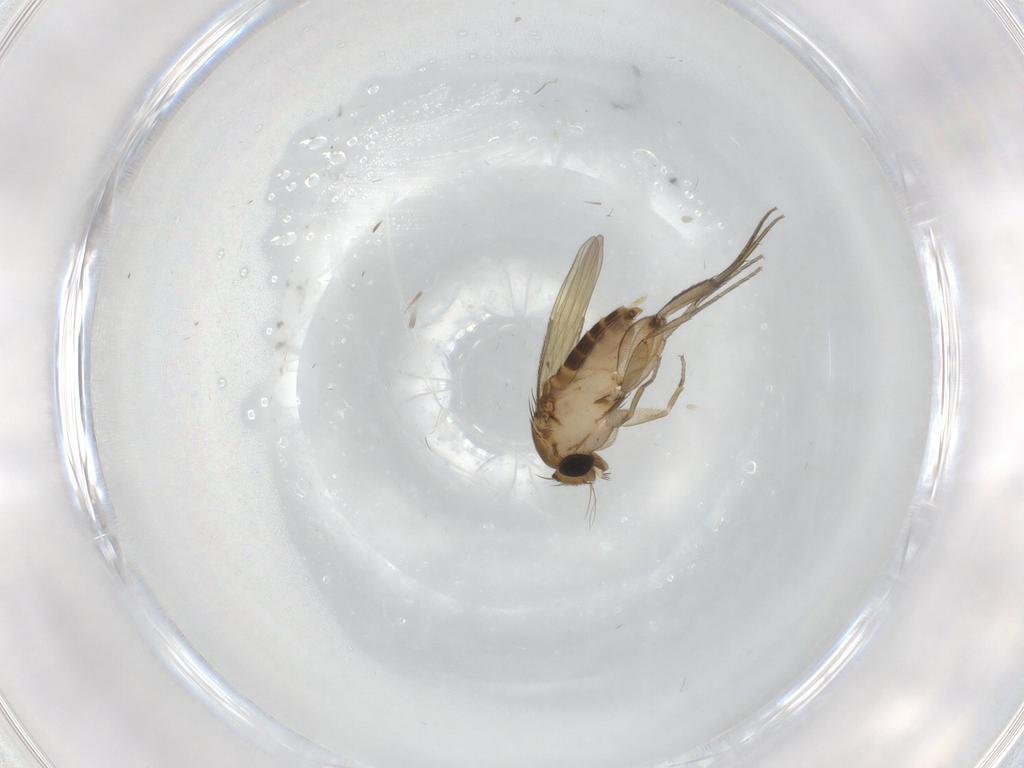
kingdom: Animalia
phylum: Arthropoda
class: Insecta
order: Diptera
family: Phoridae
